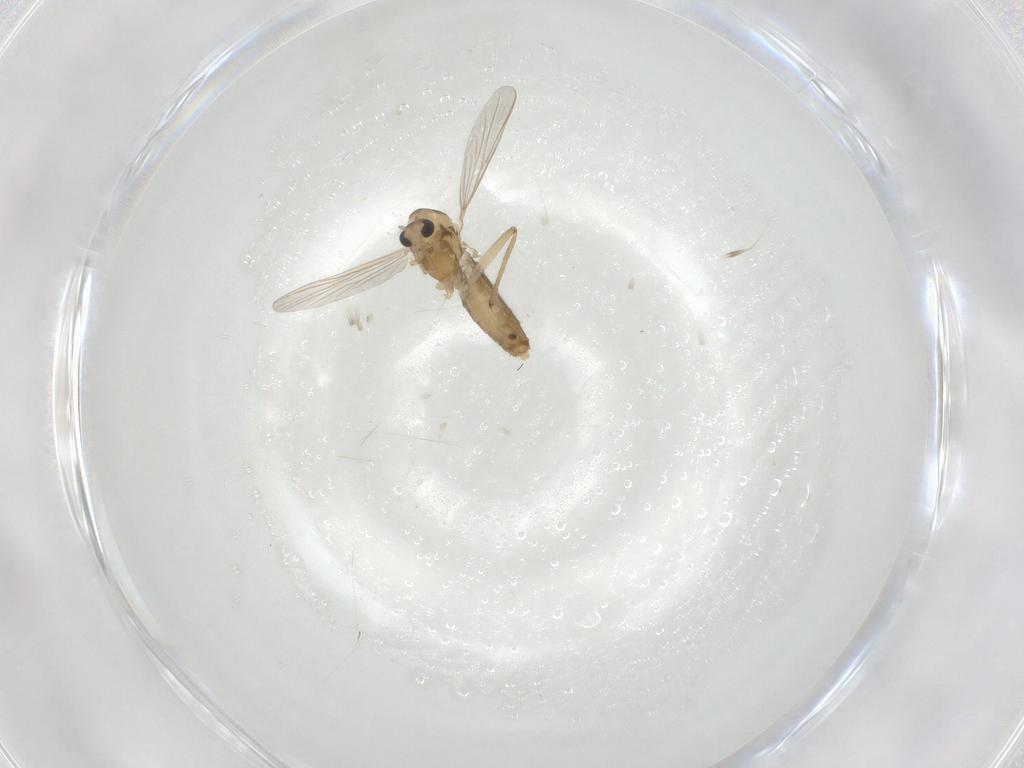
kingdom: Animalia
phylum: Arthropoda
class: Insecta
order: Diptera
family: Chironomidae
